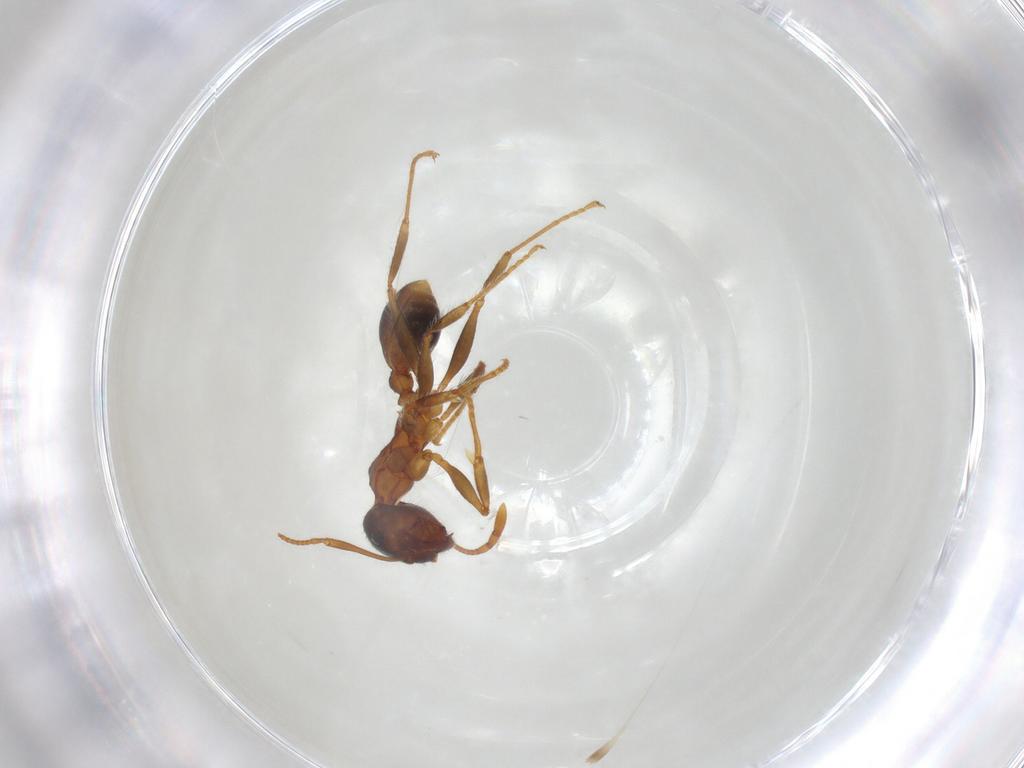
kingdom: Animalia
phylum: Arthropoda
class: Insecta
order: Hymenoptera
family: Formicidae
